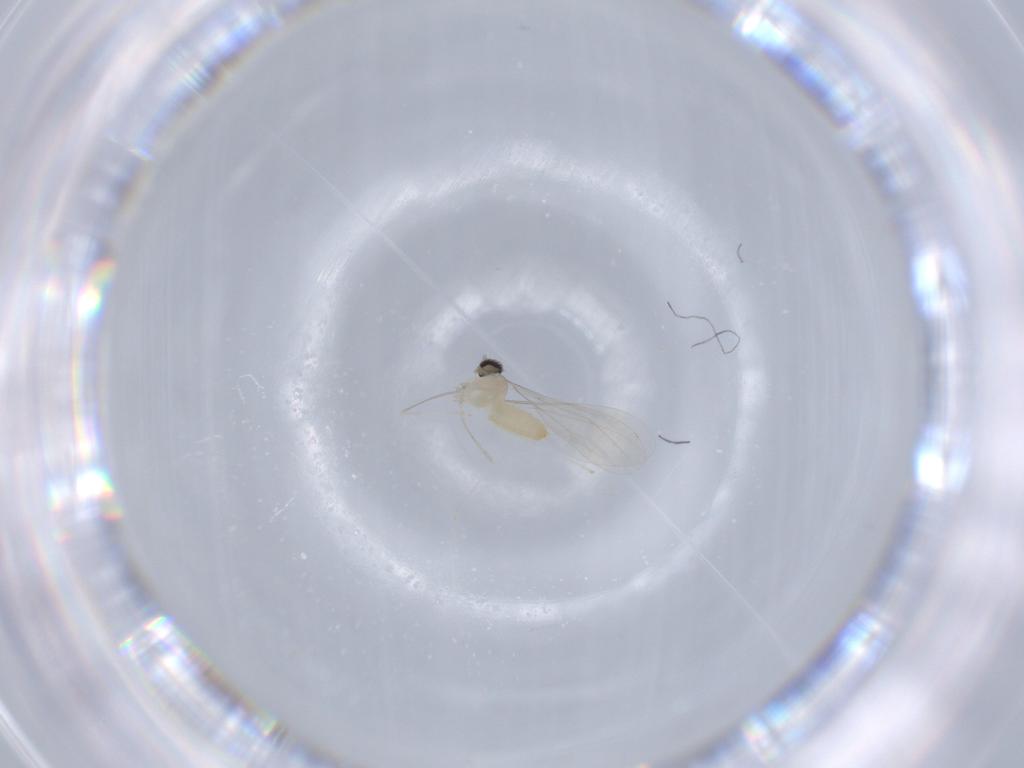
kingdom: Animalia
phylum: Arthropoda
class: Insecta
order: Diptera
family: Cecidomyiidae
